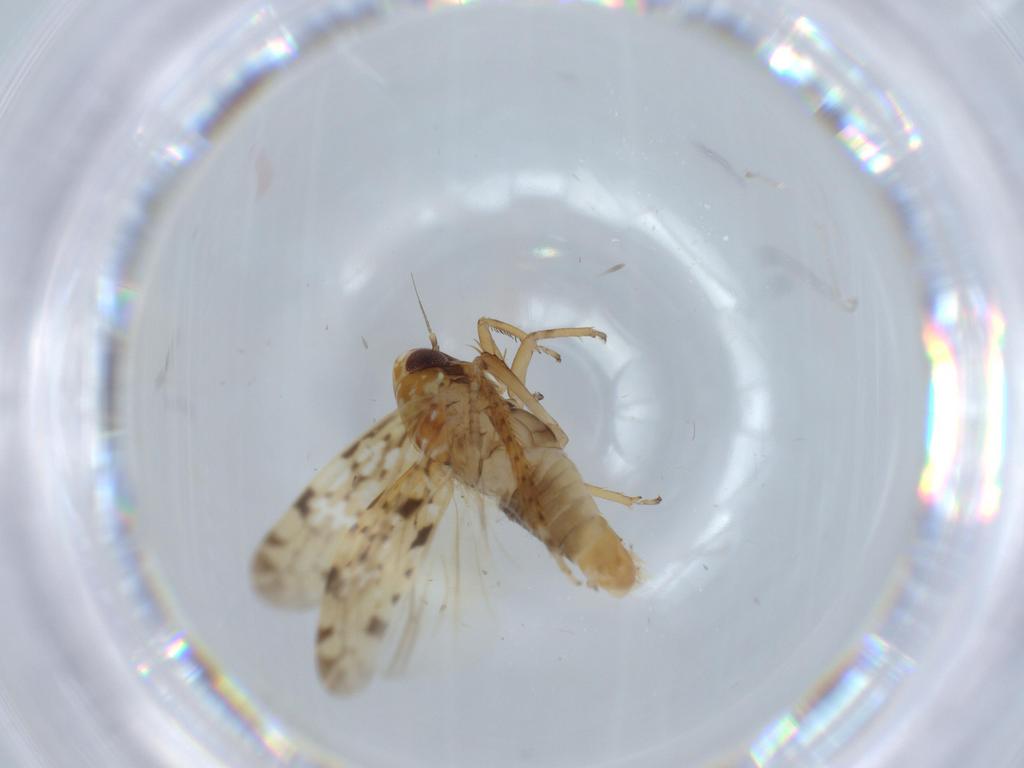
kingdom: Animalia
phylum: Arthropoda
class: Insecta
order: Hemiptera
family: Cicadellidae
